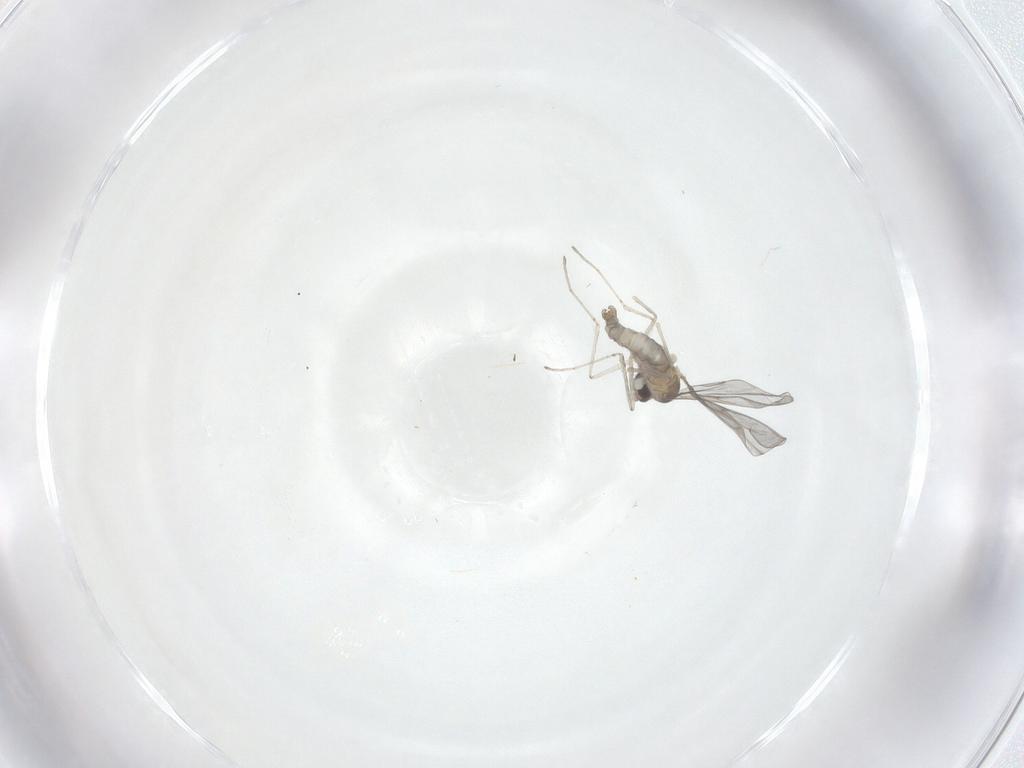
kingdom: Animalia
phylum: Arthropoda
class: Insecta
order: Diptera
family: Cecidomyiidae
